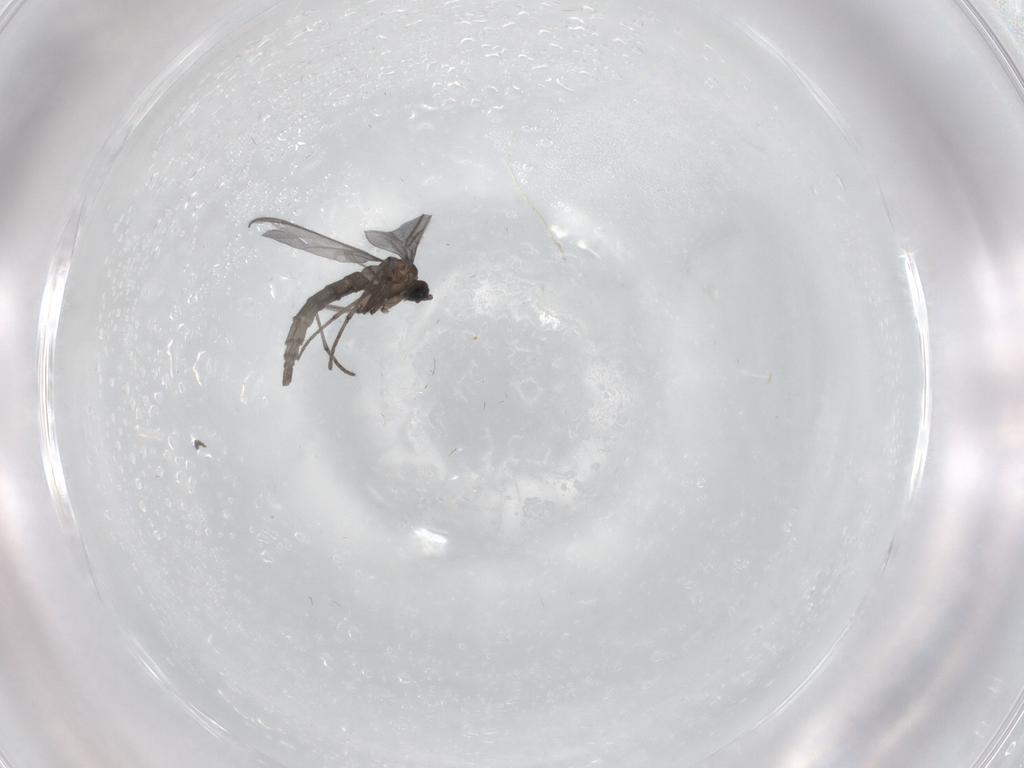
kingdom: Animalia
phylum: Arthropoda
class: Insecta
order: Diptera
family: Sciaridae
